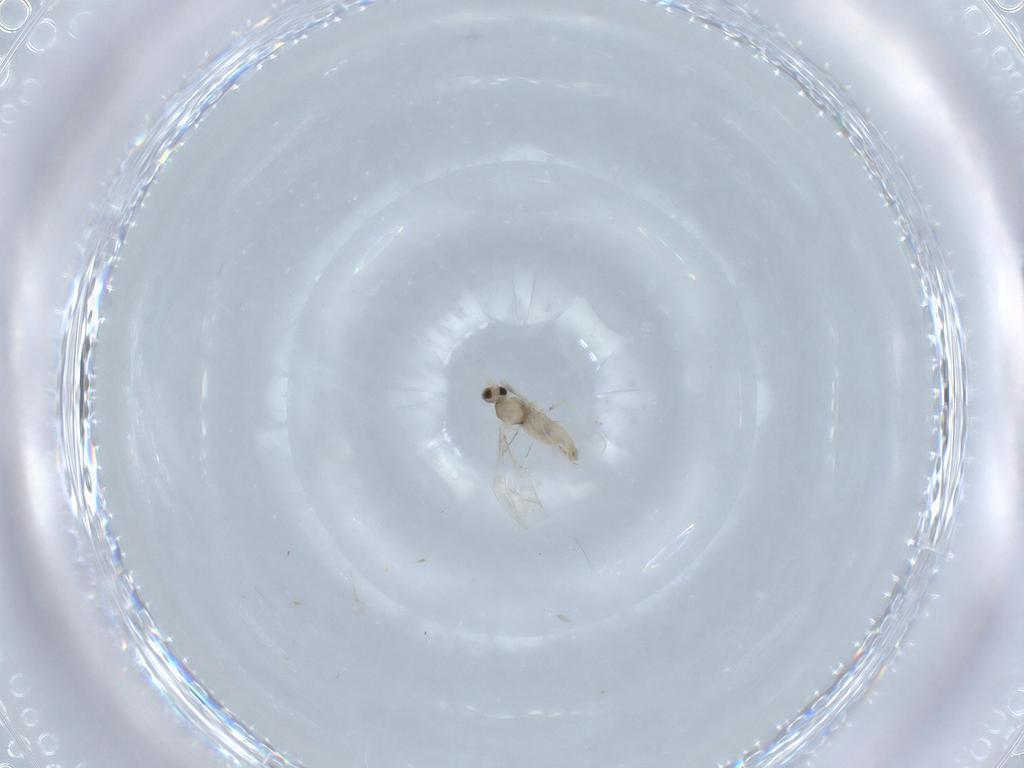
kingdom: Animalia
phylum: Arthropoda
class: Insecta
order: Diptera
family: Cecidomyiidae
